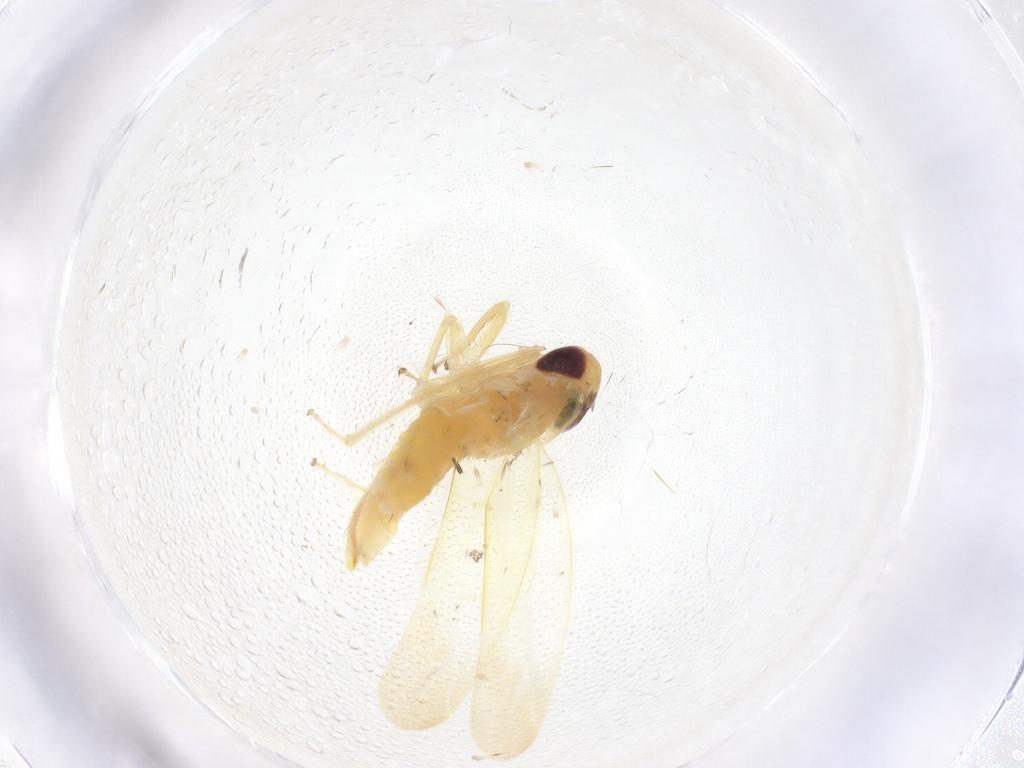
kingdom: Animalia
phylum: Arthropoda
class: Insecta
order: Hemiptera
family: Cicadellidae
